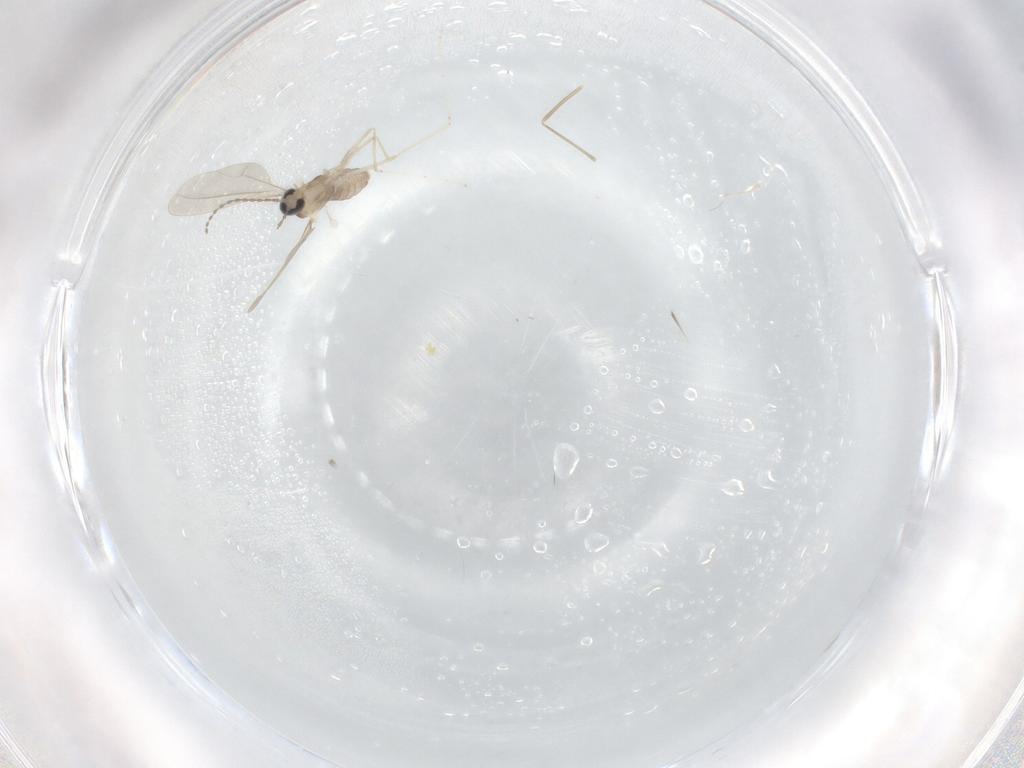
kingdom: Animalia
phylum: Arthropoda
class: Insecta
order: Diptera
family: Cecidomyiidae
